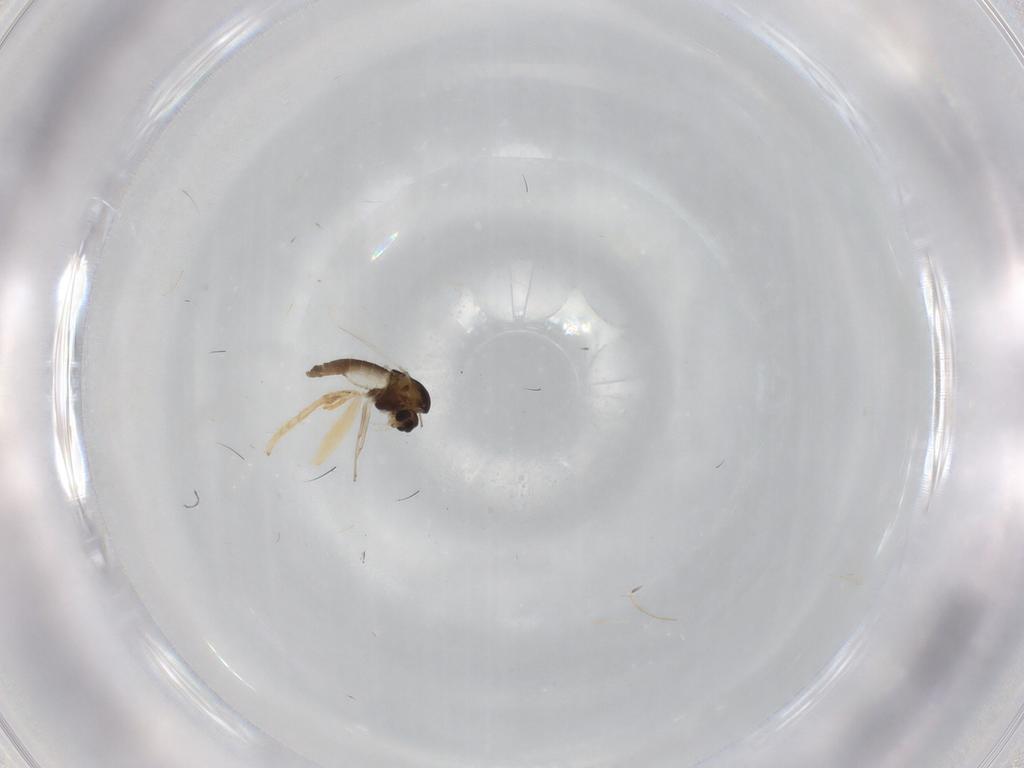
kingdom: Animalia
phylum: Arthropoda
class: Insecta
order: Diptera
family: Chironomidae
